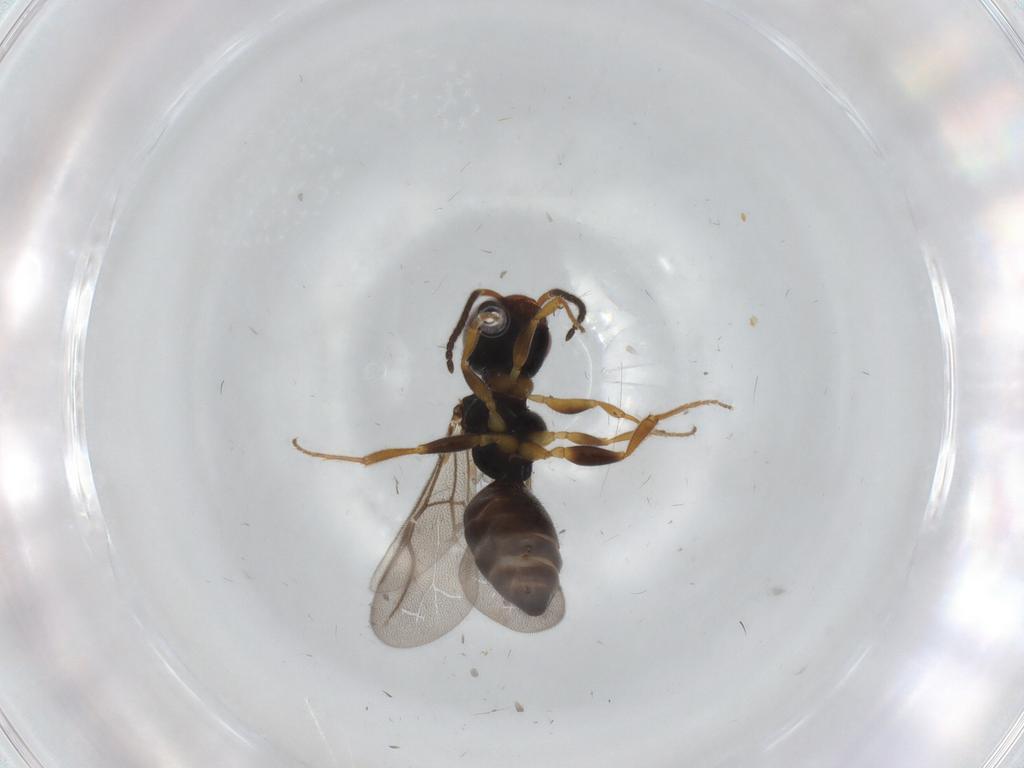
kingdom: Animalia
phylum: Arthropoda
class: Insecta
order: Hymenoptera
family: Bethylidae
